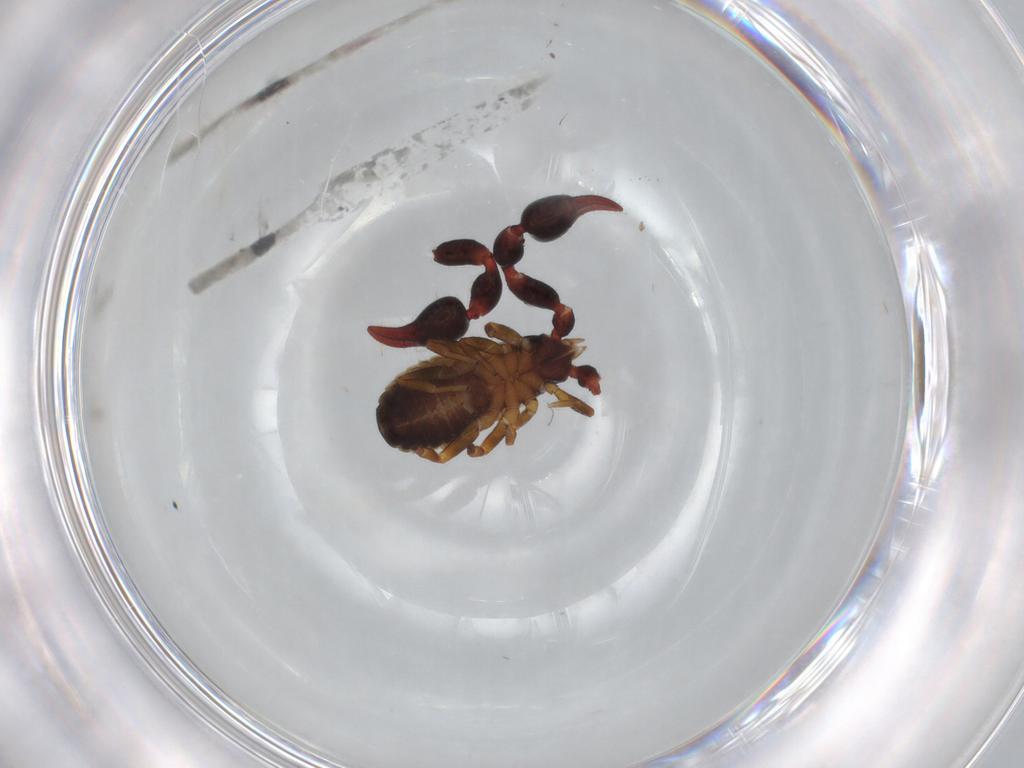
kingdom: Animalia
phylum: Arthropoda
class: Arachnida
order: Pseudoscorpiones
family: Chernetidae
